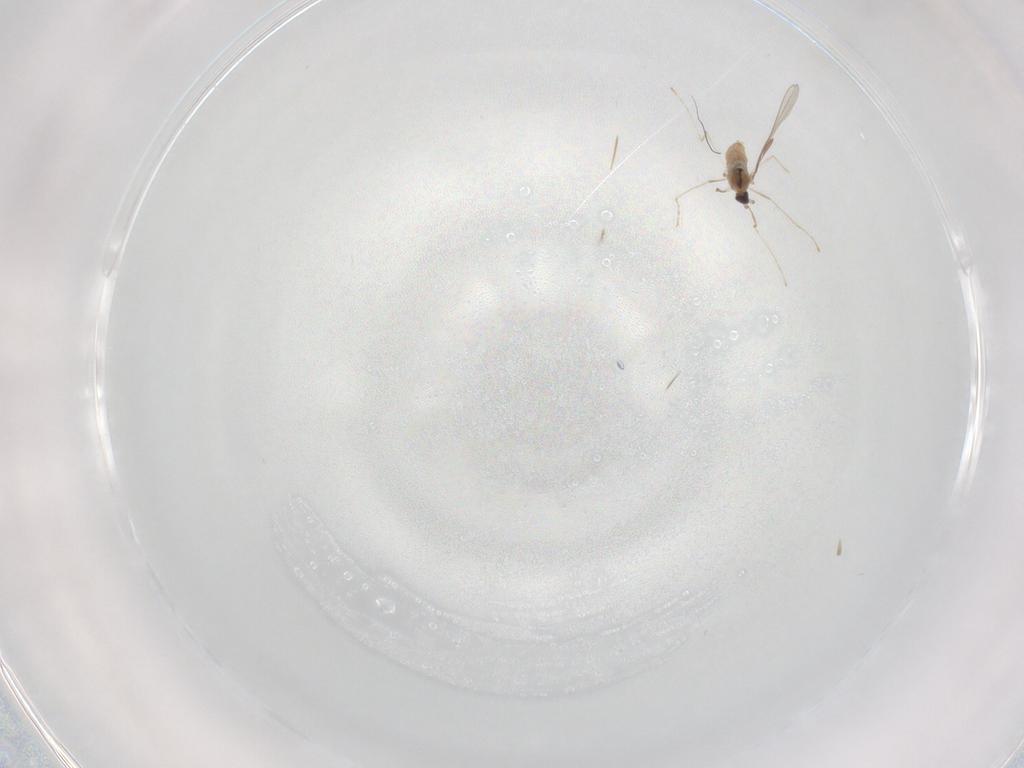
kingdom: Animalia
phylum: Arthropoda
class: Insecta
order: Diptera
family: Cecidomyiidae
